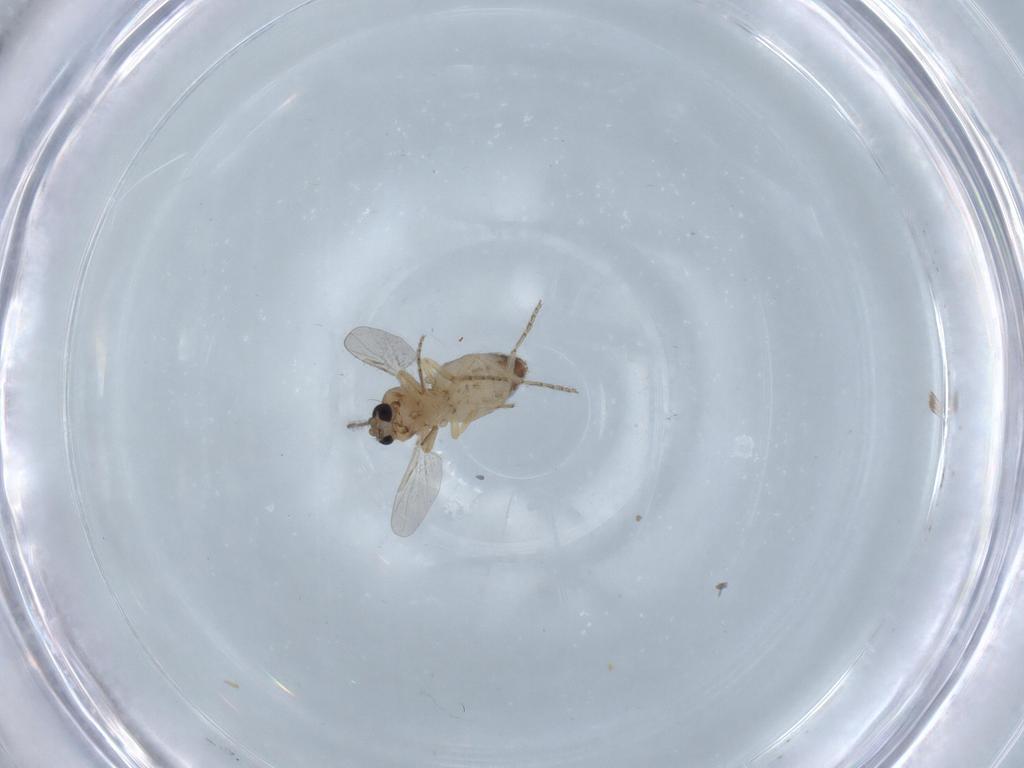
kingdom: Animalia
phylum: Arthropoda
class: Insecta
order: Diptera
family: Ceratopogonidae
